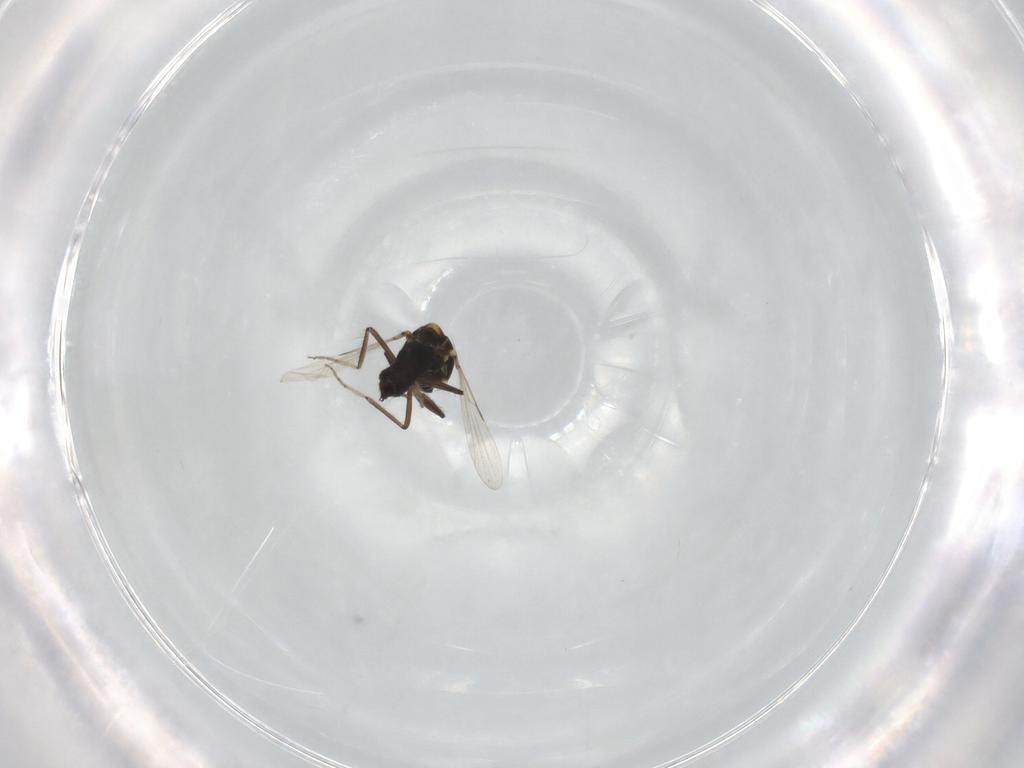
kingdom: Animalia
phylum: Arthropoda
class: Insecta
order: Diptera
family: Ceratopogonidae
